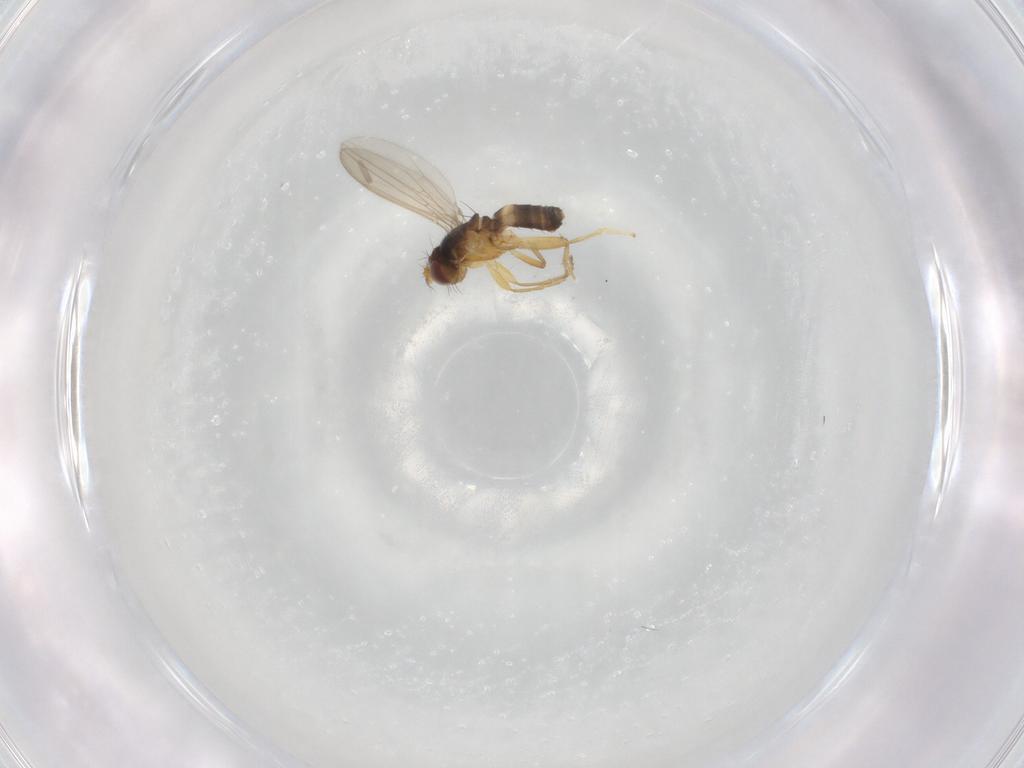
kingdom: Animalia
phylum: Arthropoda
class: Insecta
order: Diptera
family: Periscelididae
